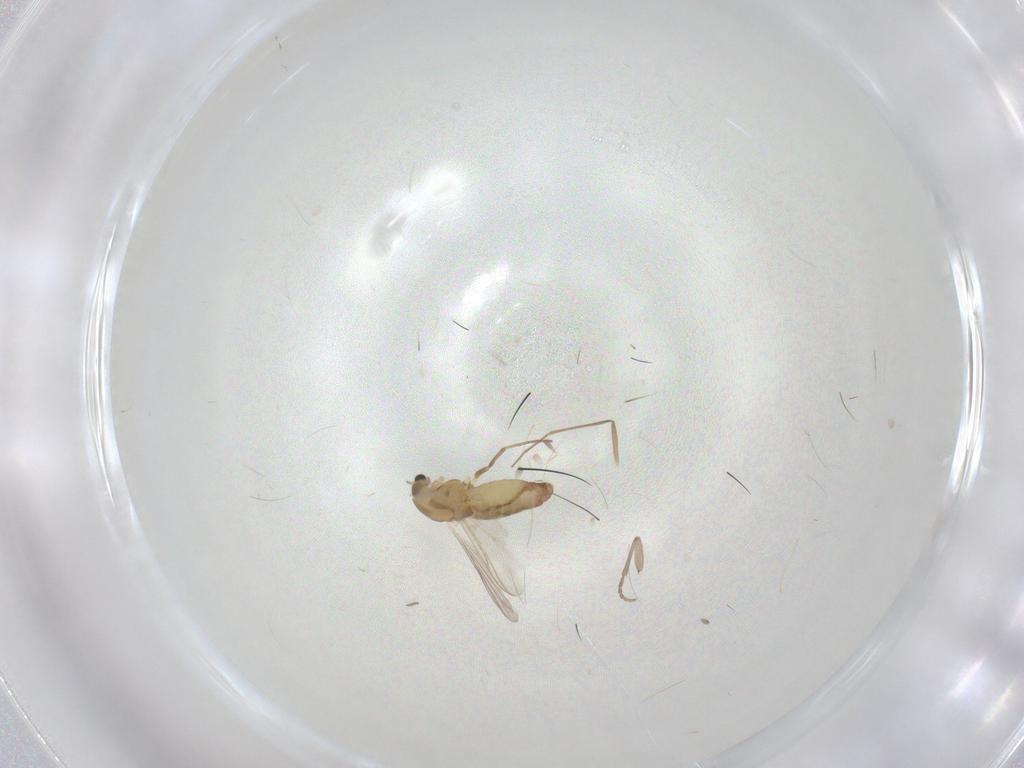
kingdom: Animalia
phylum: Arthropoda
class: Insecta
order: Diptera
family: Chironomidae
